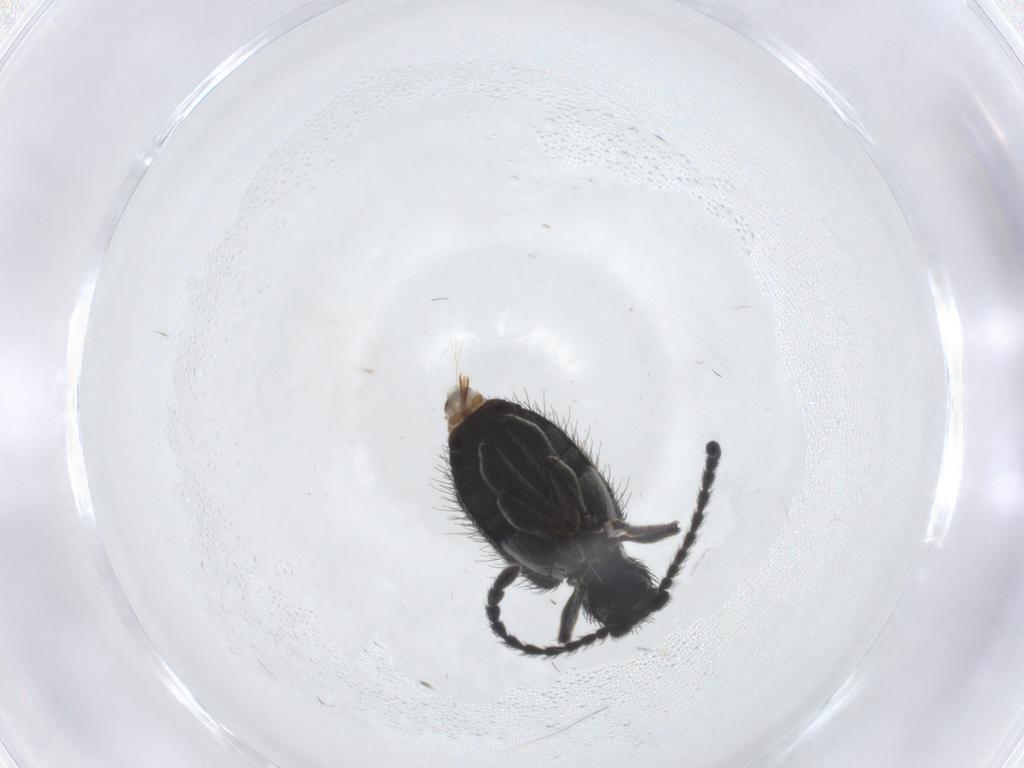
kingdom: Animalia
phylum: Arthropoda
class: Insecta
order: Coleoptera
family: Ptinidae
